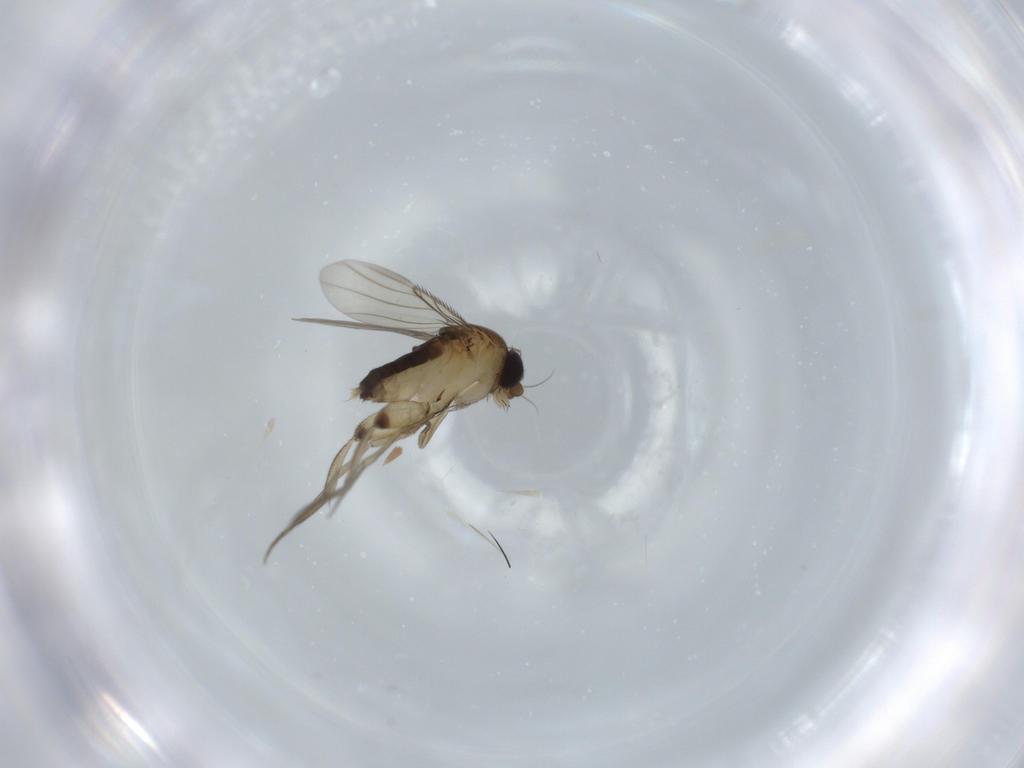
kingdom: Animalia
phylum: Arthropoda
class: Insecta
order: Diptera
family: Phoridae
